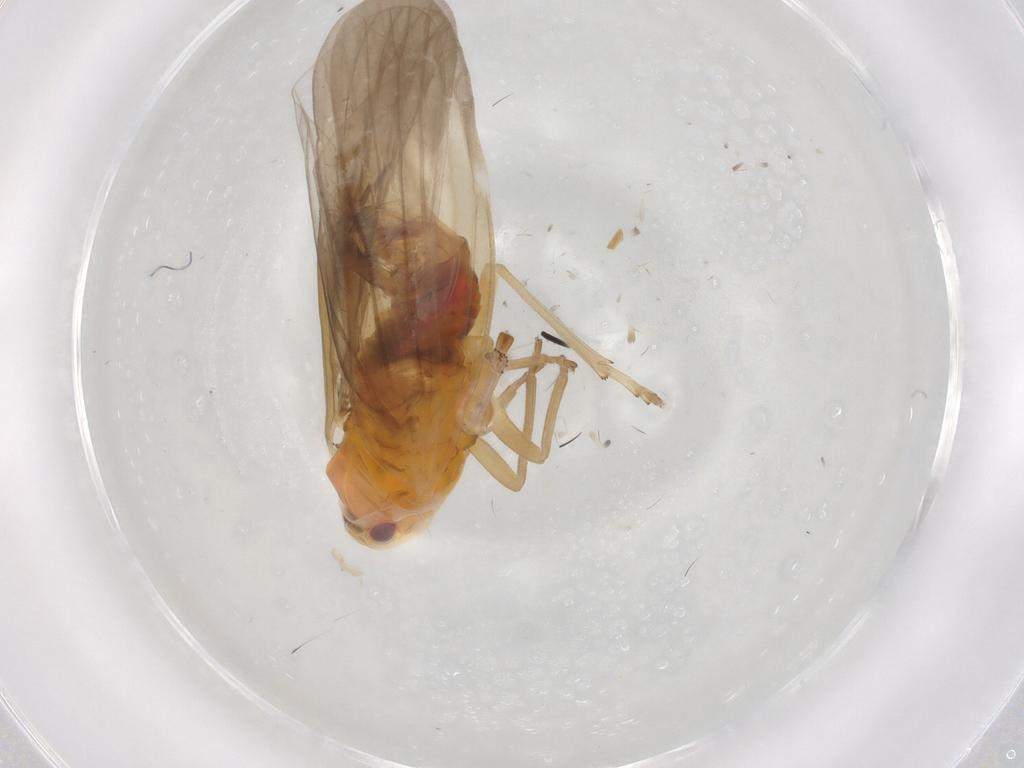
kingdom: Animalia
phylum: Arthropoda
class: Insecta
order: Hemiptera
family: Derbidae
